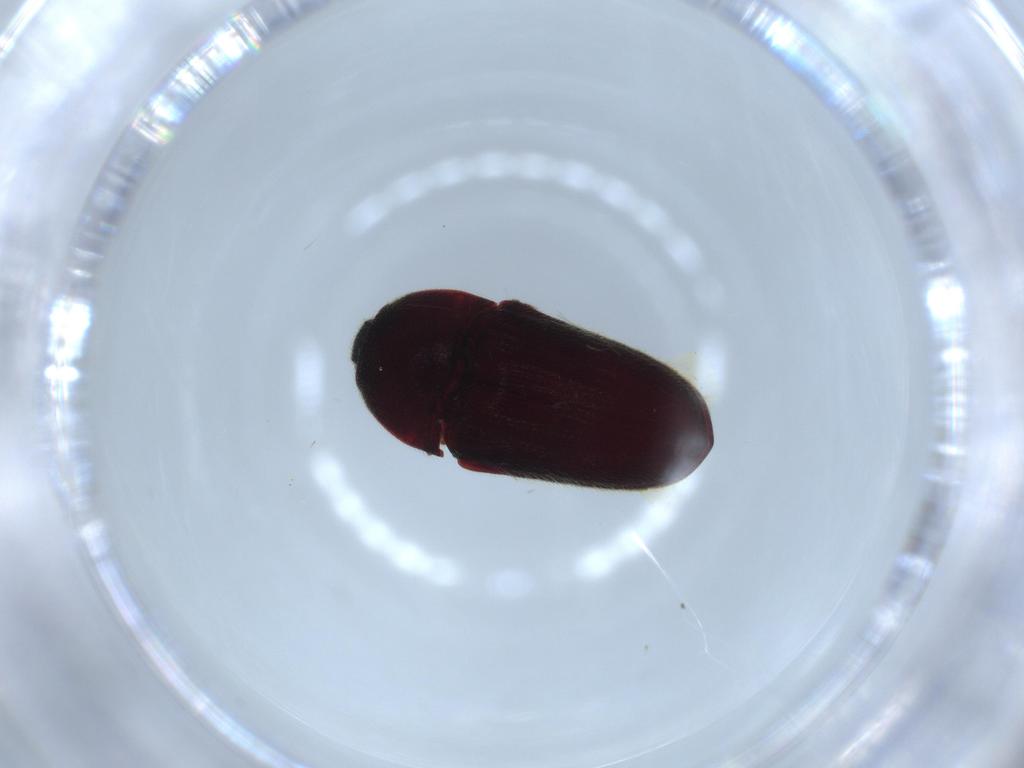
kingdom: Animalia
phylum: Arthropoda
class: Insecta
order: Coleoptera
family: Throscidae
